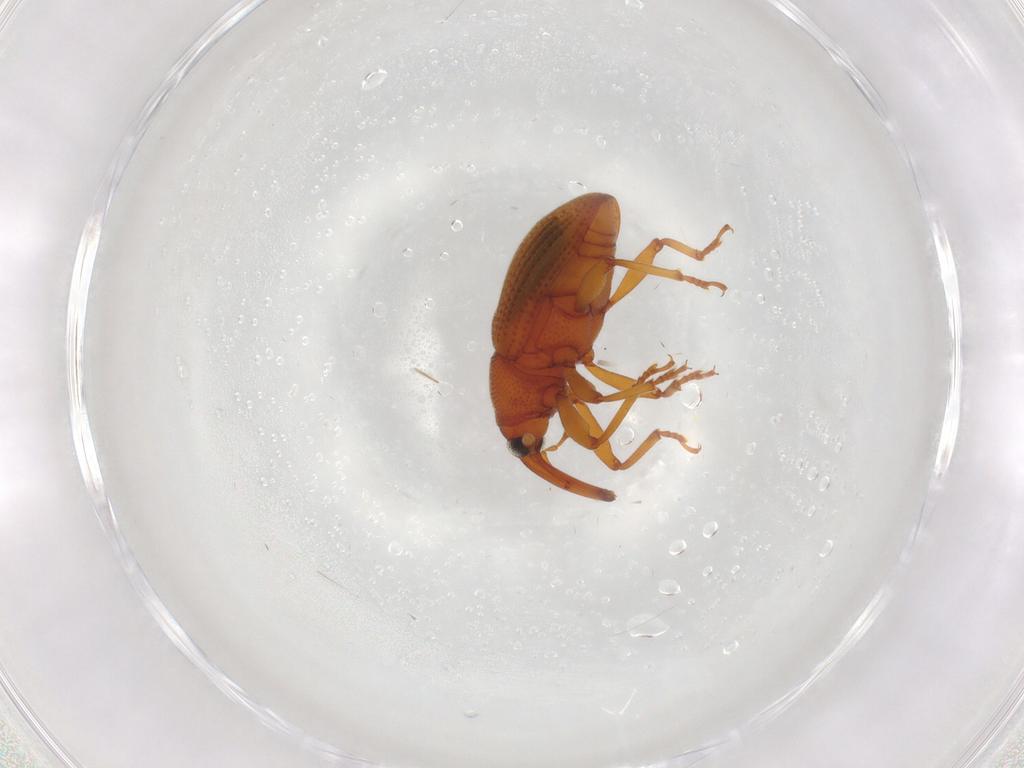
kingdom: Animalia
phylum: Arthropoda
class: Insecta
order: Coleoptera
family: Curculionidae
